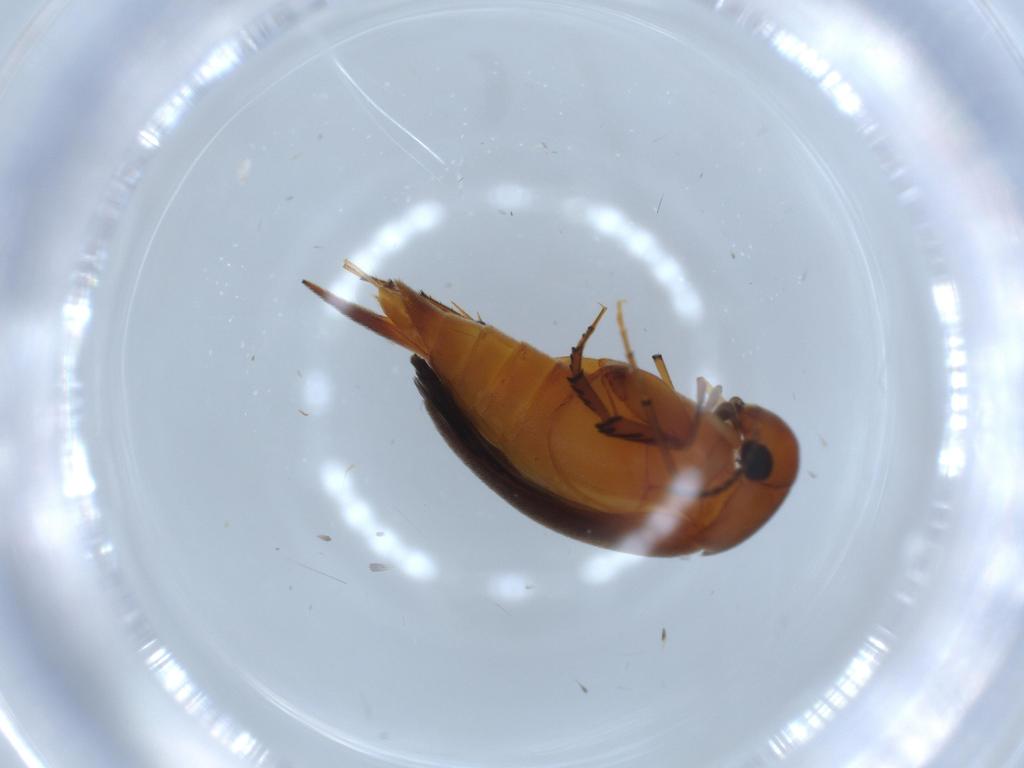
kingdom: Animalia
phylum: Arthropoda
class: Insecta
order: Coleoptera
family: Mordellidae
